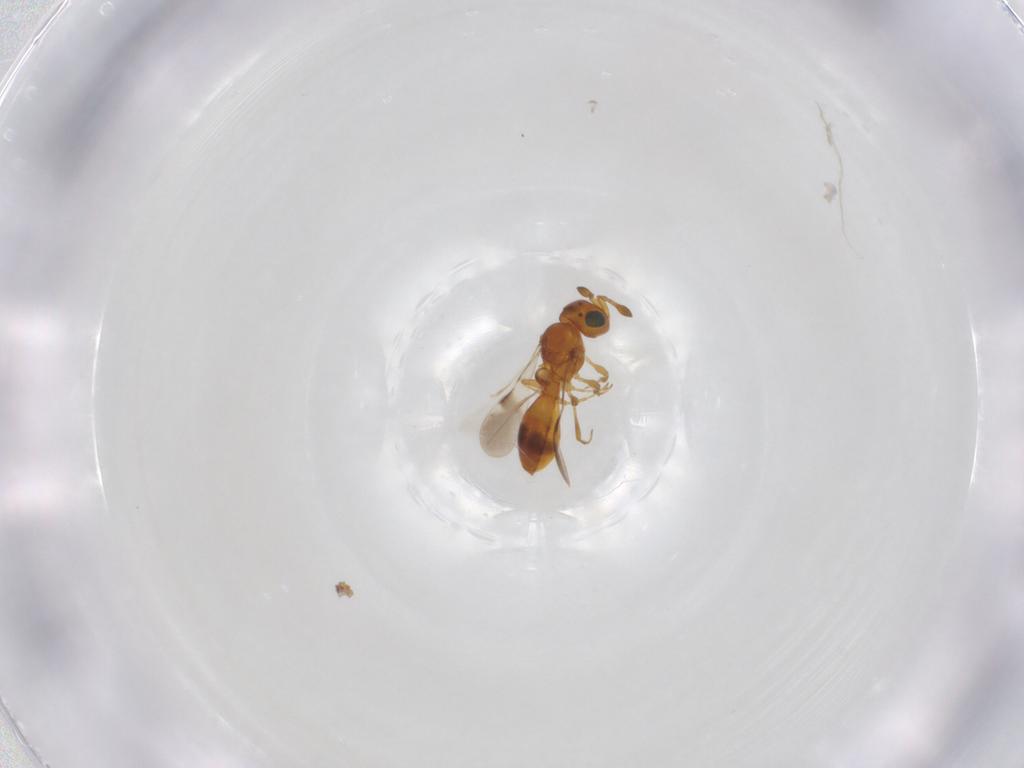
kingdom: Animalia
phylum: Arthropoda
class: Insecta
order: Hymenoptera
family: Scelionidae
